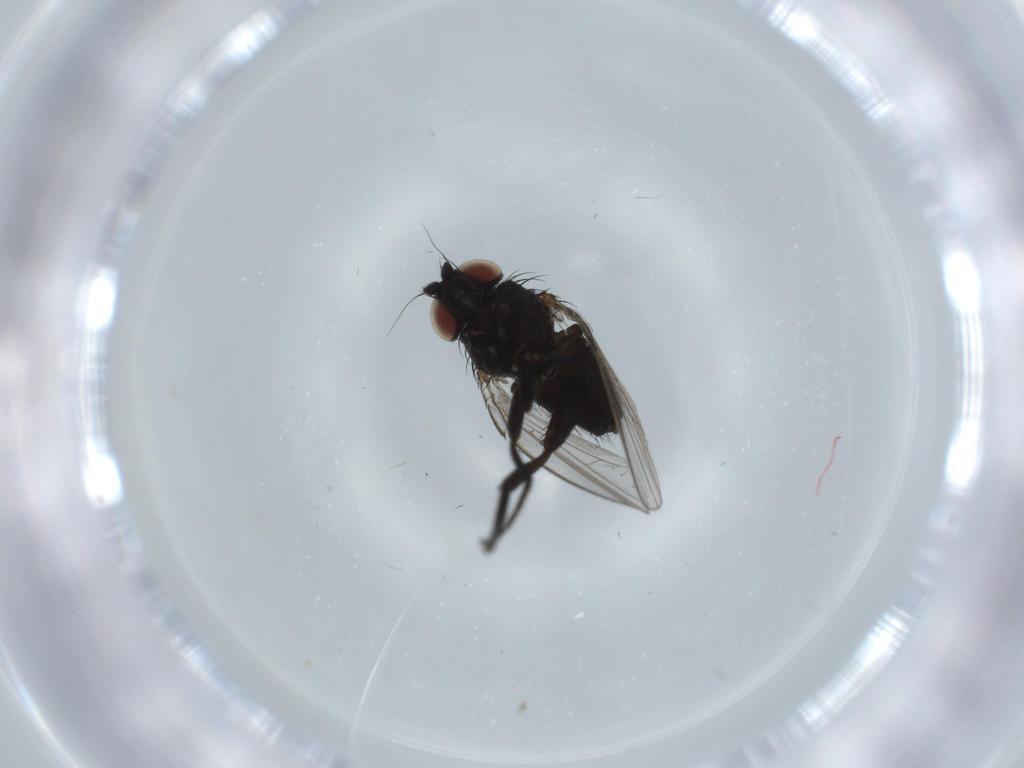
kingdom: Animalia
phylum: Arthropoda
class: Insecta
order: Diptera
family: Milichiidae
